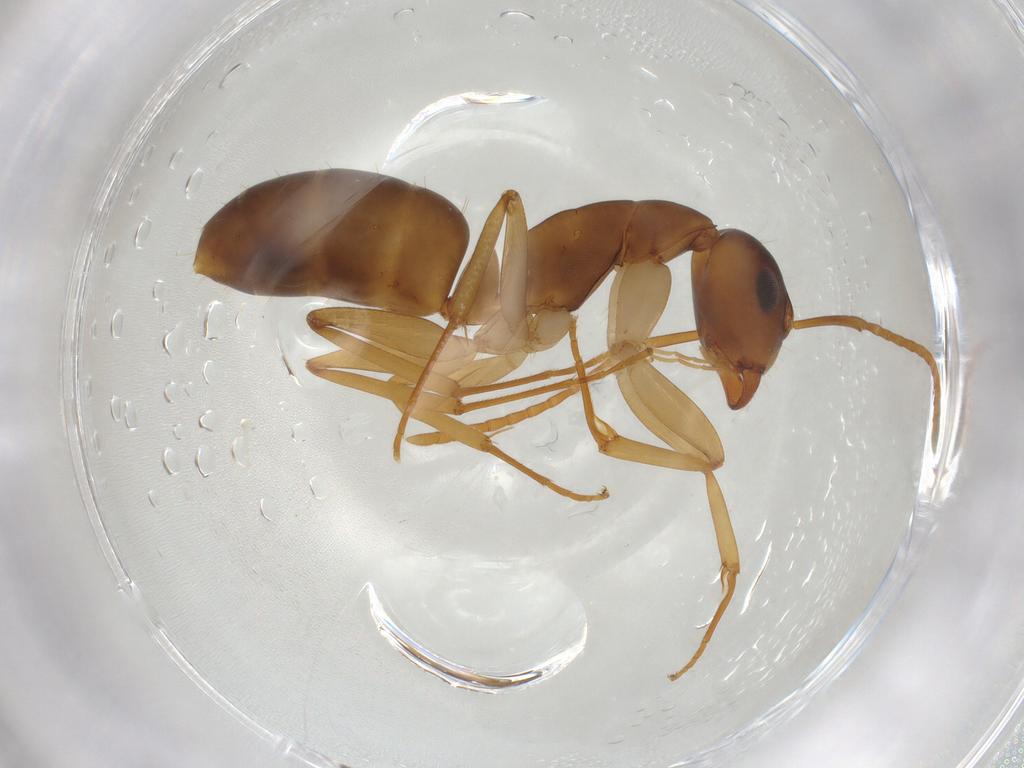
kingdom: Animalia
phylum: Arthropoda
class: Insecta
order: Hymenoptera
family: Formicidae
